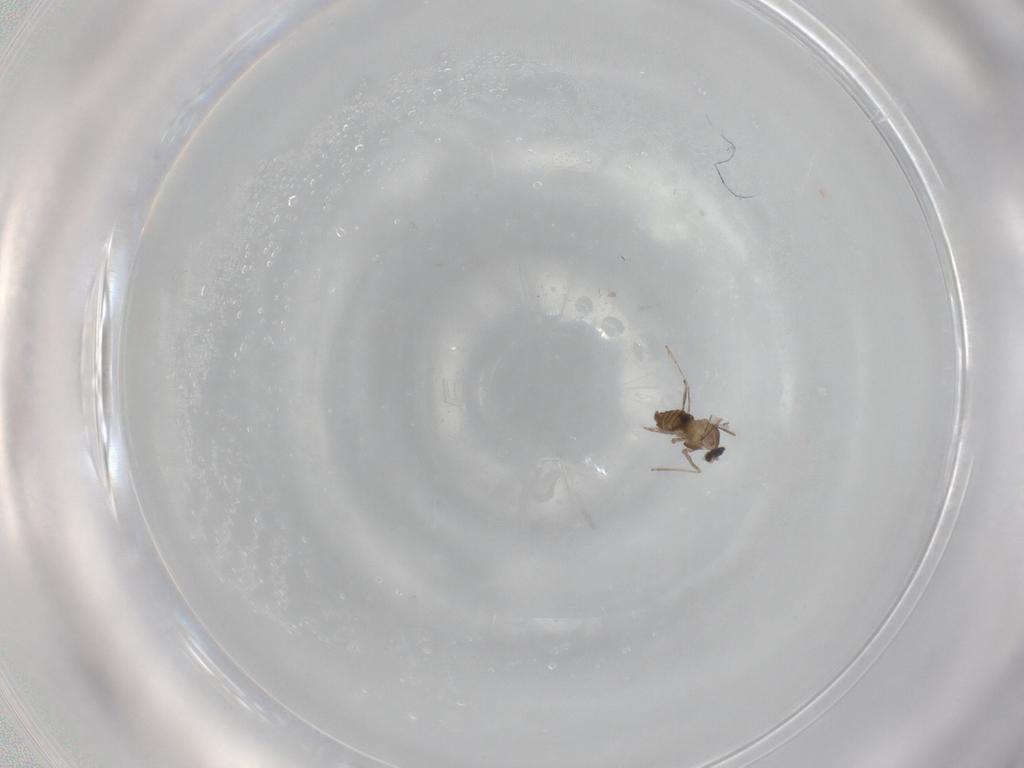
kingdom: Animalia
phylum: Arthropoda
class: Insecta
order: Diptera
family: Cecidomyiidae
